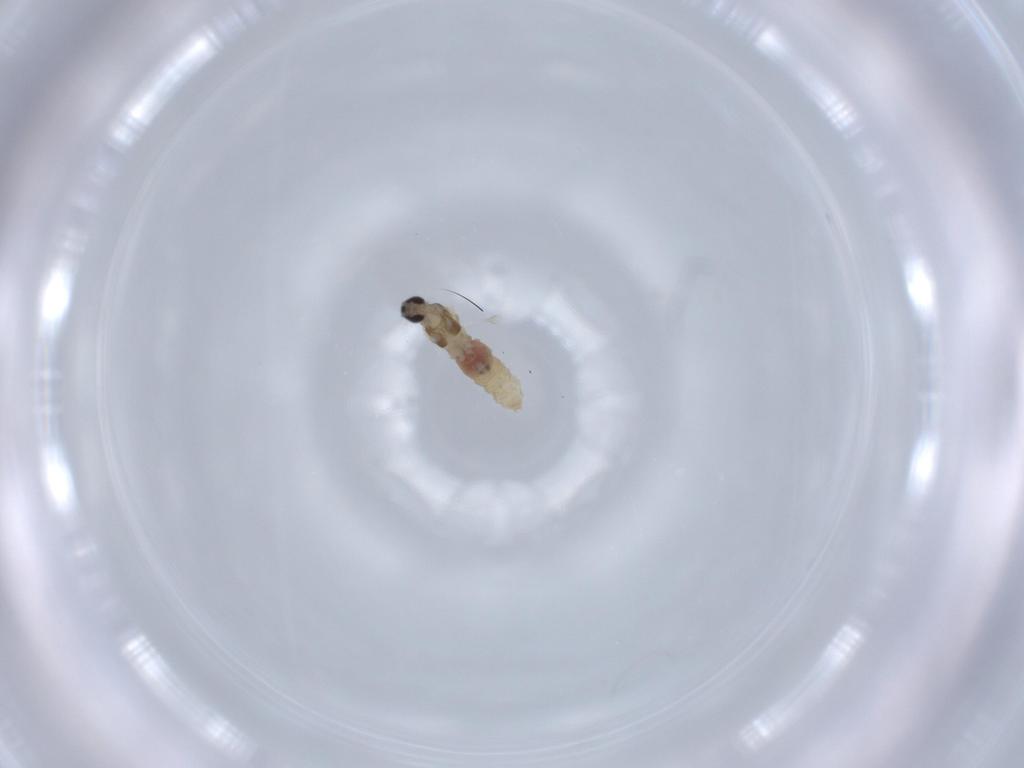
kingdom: Animalia
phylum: Arthropoda
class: Insecta
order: Diptera
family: Cecidomyiidae
